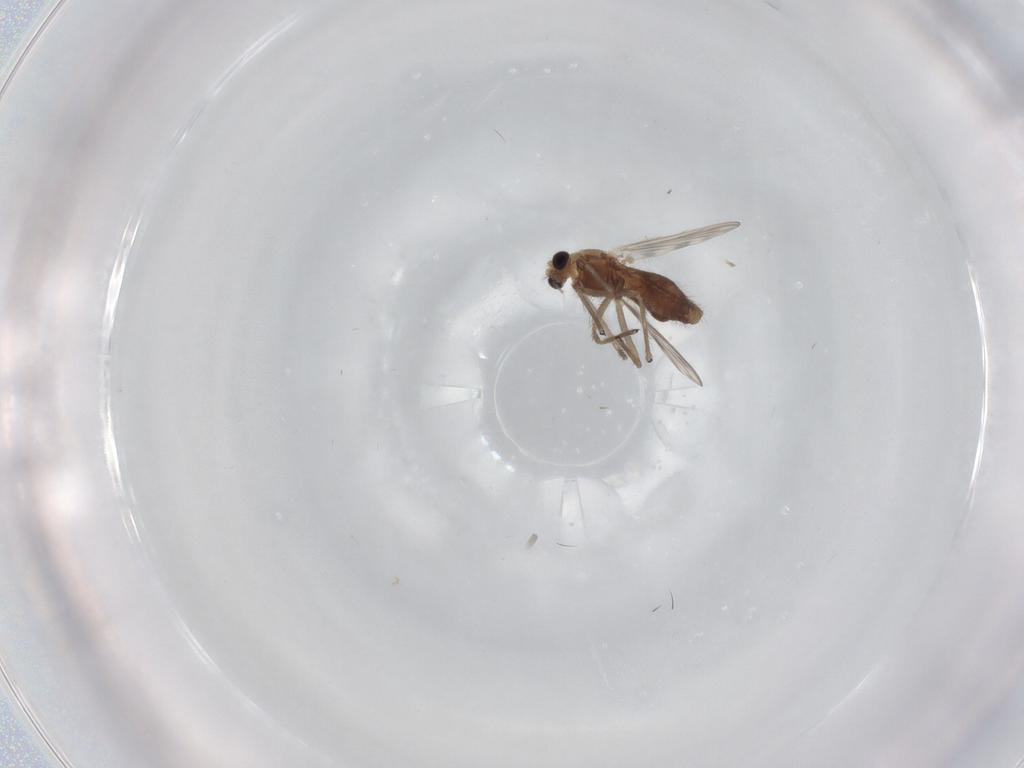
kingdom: Animalia
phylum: Arthropoda
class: Insecta
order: Diptera
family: Chironomidae
